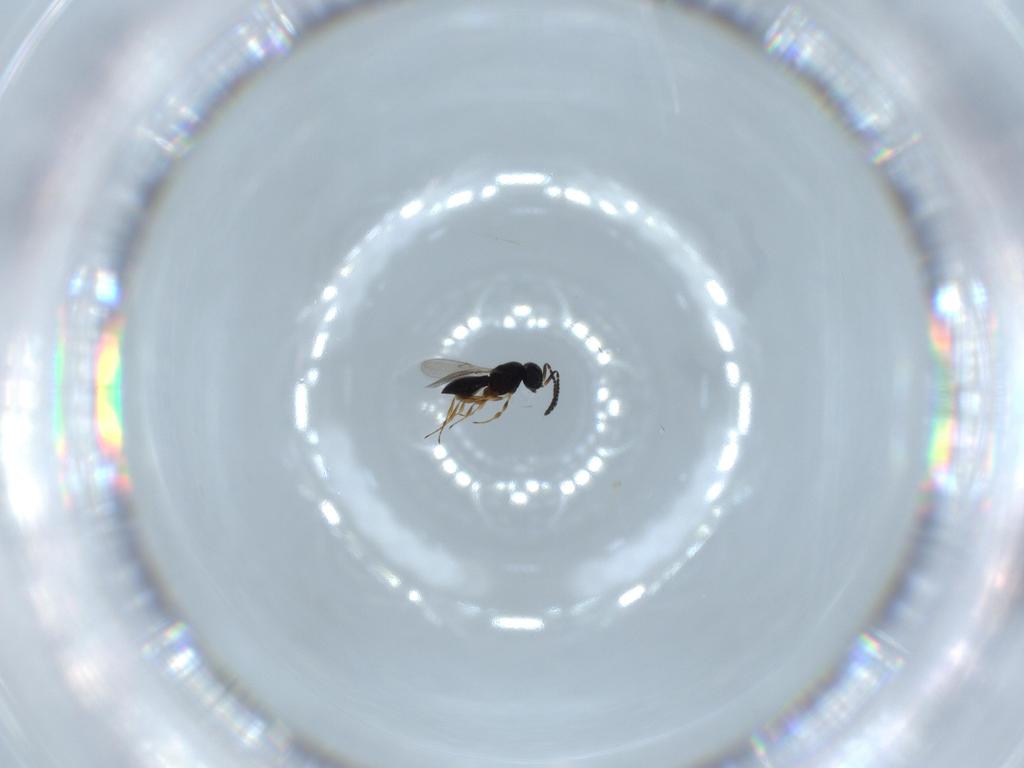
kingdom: Animalia
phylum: Arthropoda
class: Insecta
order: Hymenoptera
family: Scelionidae
